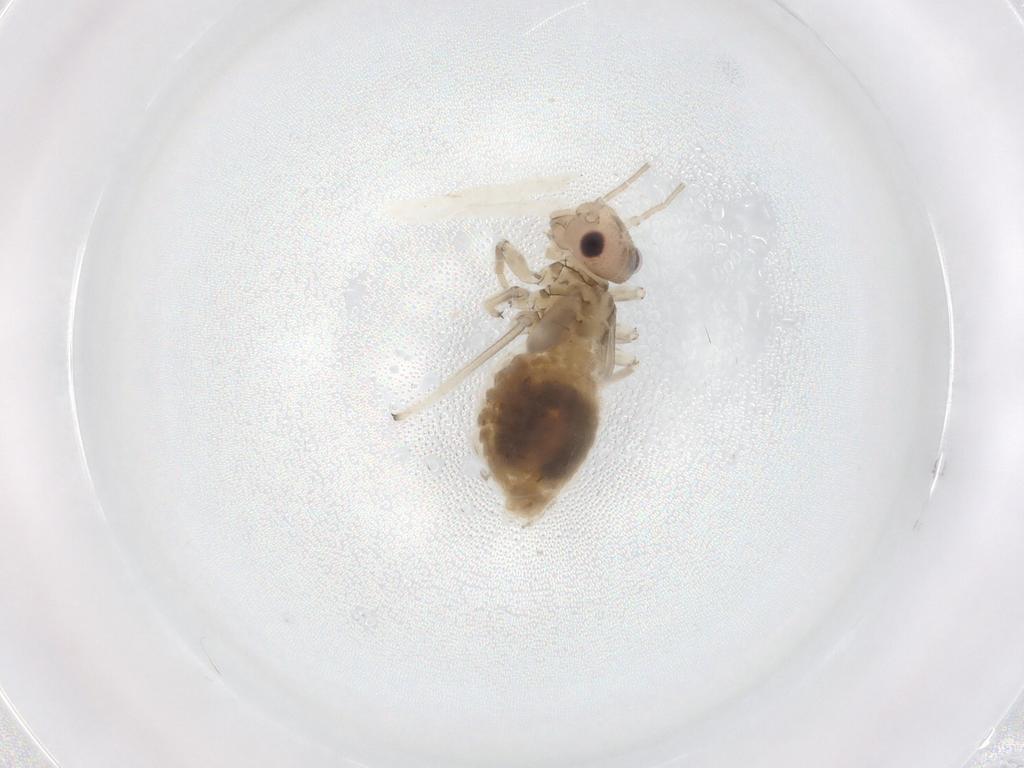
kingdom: Animalia
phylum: Arthropoda
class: Insecta
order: Psocodea
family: Amphipsocidae
